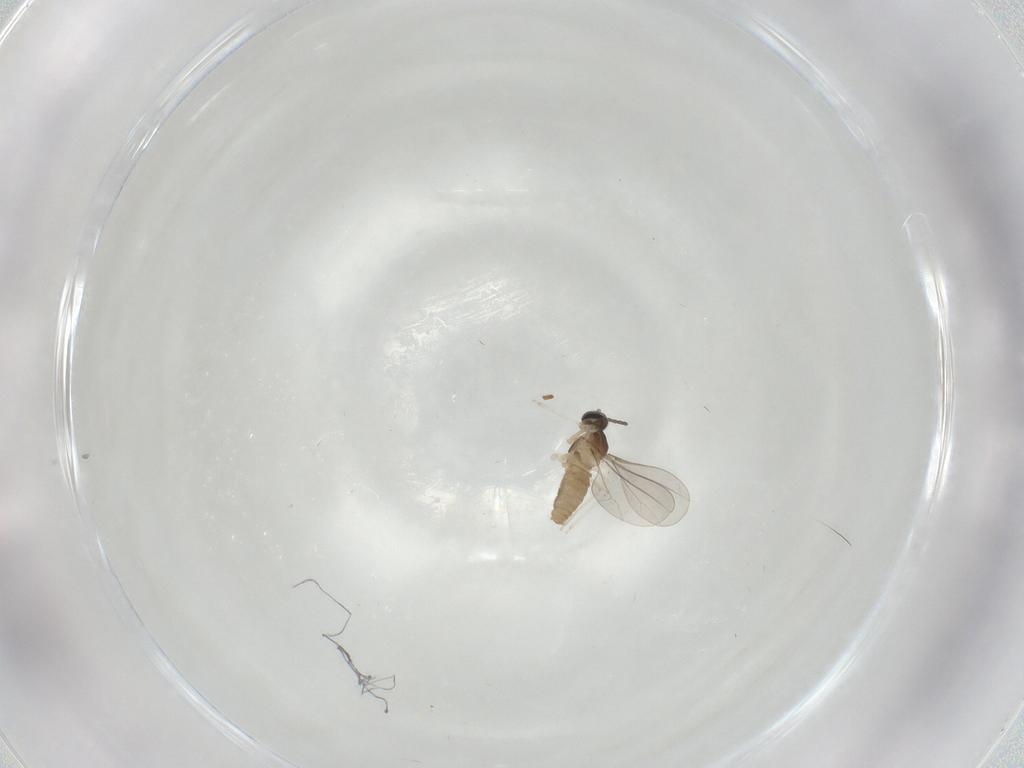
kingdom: Animalia
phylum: Arthropoda
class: Insecta
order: Diptera
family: Cecidomyiidae
